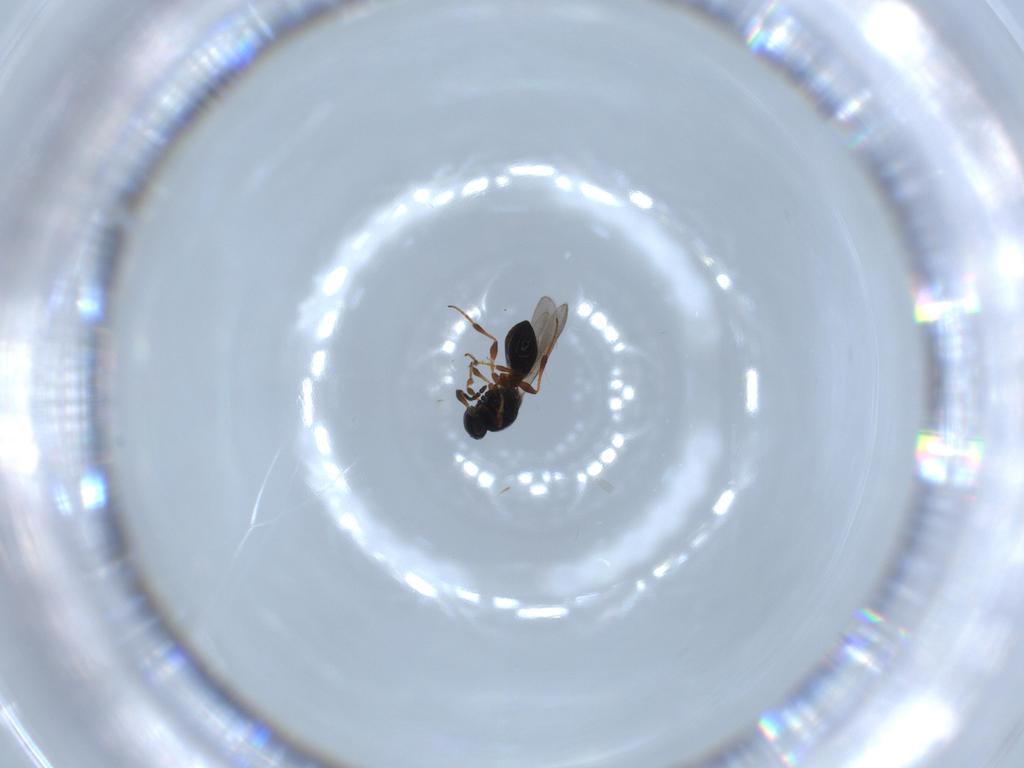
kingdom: Animalia
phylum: Arthropoda
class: Insecta
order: Hymenoptera
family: Platygastridae
